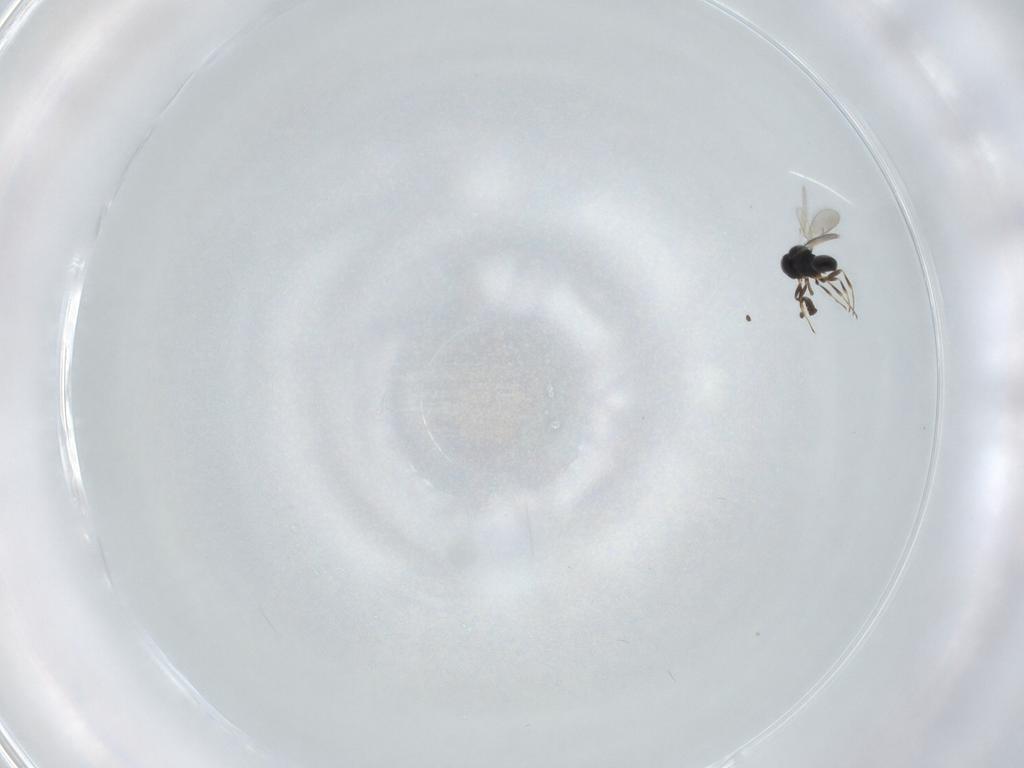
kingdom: Animalia
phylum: Arthropoda
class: Insecta
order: Hymenoptera
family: Scelionidae
